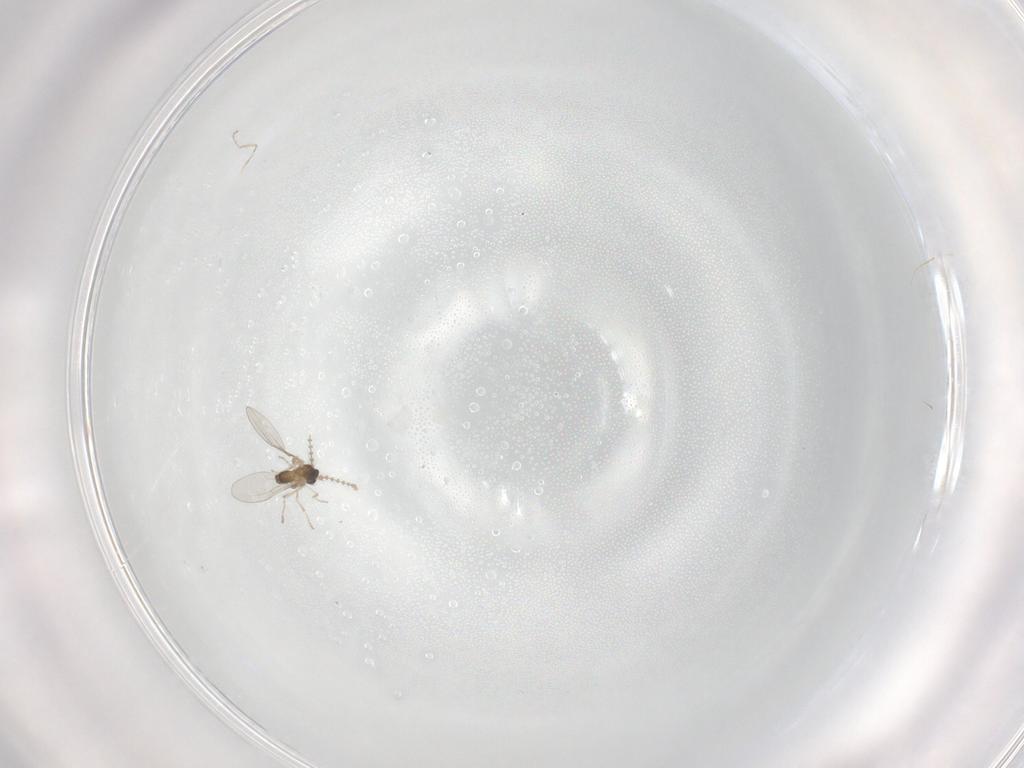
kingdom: Animalia
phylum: Arthropoda
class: Insecta
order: Diptera
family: Cecidomyiidae
